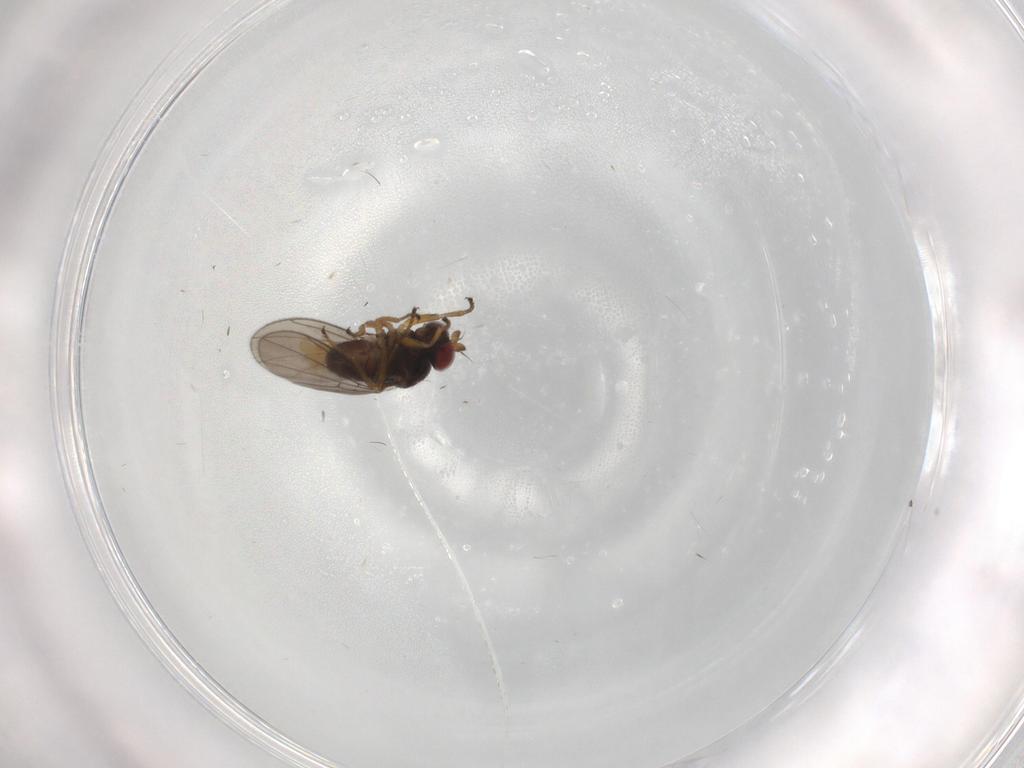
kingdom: Animalia
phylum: Arthropoda
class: Insecta
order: Diptera
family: Ephydridae
